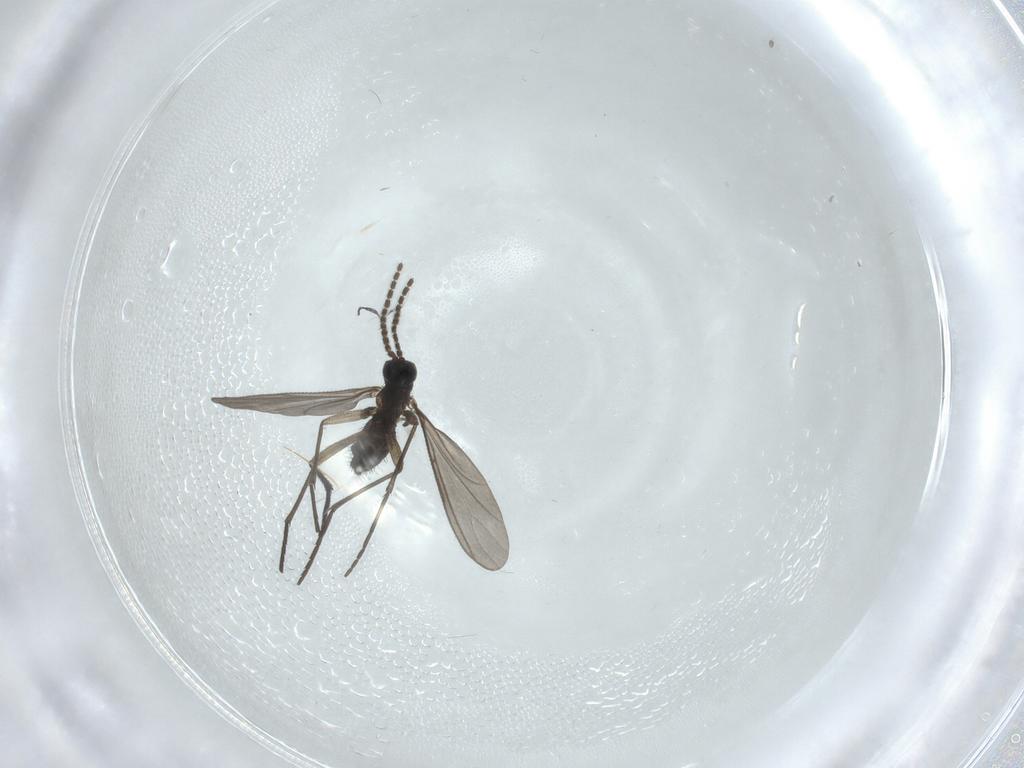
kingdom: Animalia
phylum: Arthropoda
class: Insecta
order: Diptera
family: Sciaridae
